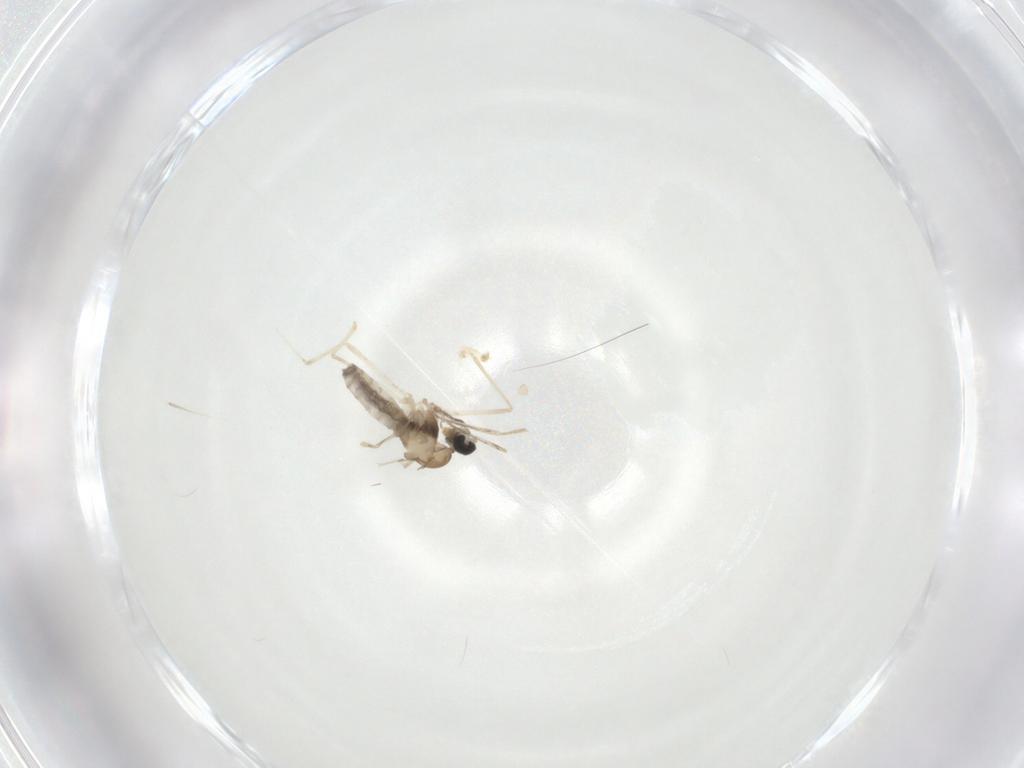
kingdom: Animalia
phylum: Arthropoda
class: Insecta
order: Diptera
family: Cecidomyiidae
